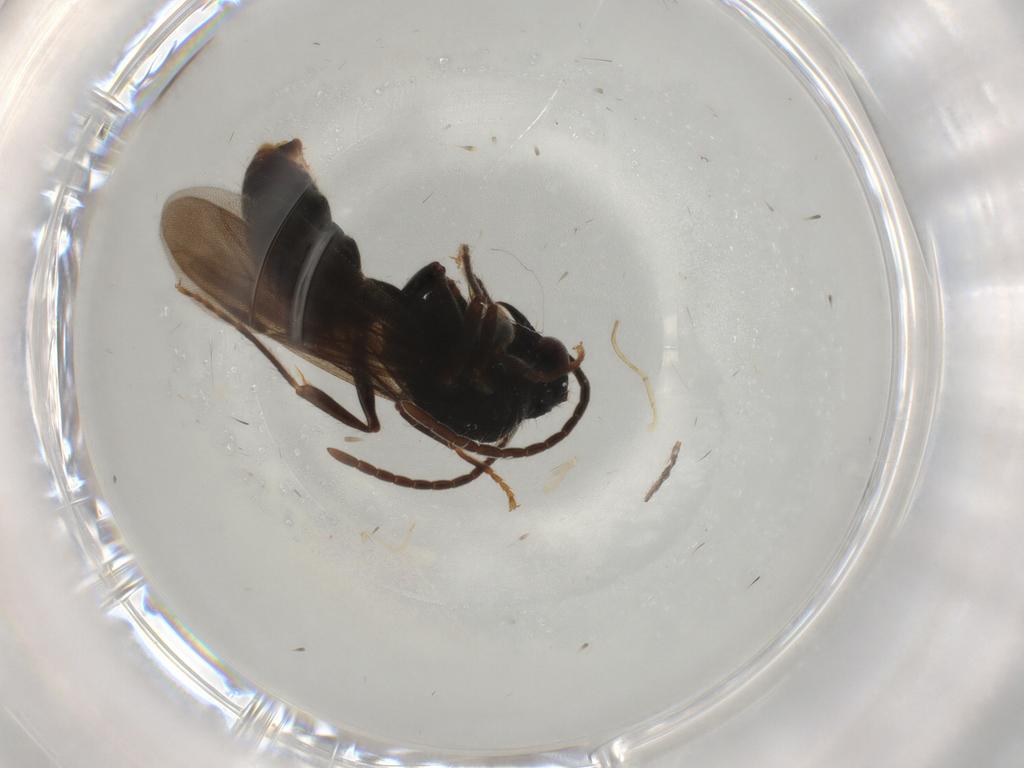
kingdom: Animalia
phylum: Arthropoda
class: Insecta
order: Hymenoptera
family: Formicidae
